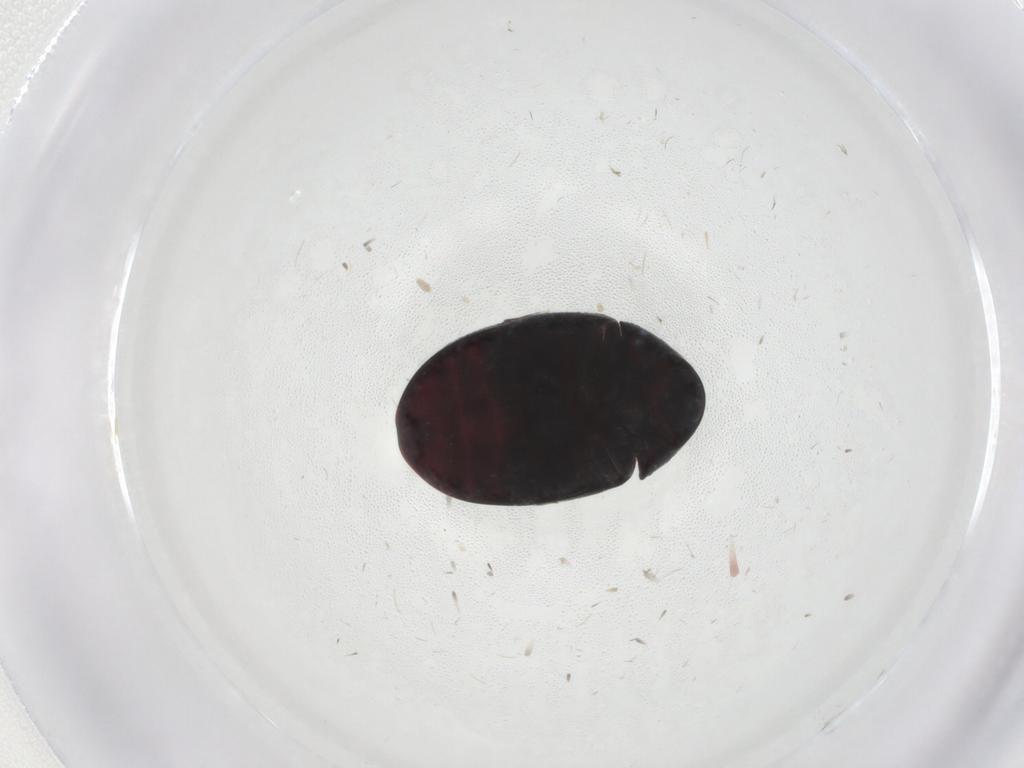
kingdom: Animalia
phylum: Arthropoda
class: Insecta
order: Coleoptera
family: Ptinidae
